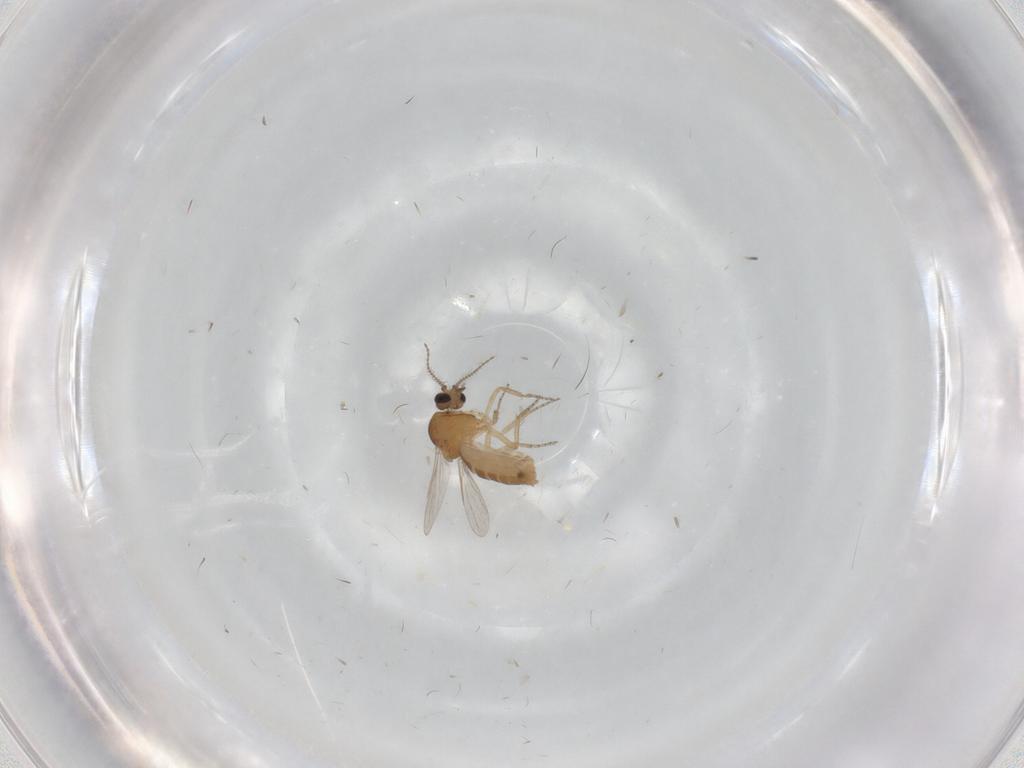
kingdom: Animalia
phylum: Arthropoda
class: Insecta
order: Diptera
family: Ceratopogonidae
